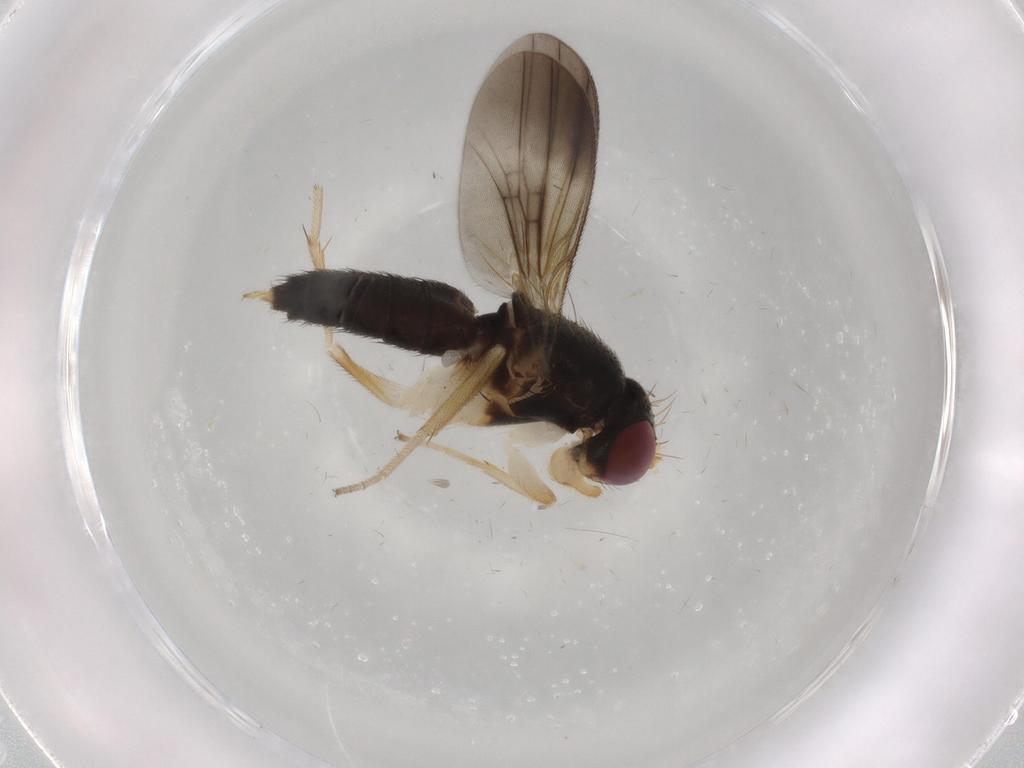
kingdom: Animalia
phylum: Arthropoda
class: Insecta
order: Diptera
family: Clusiidae
